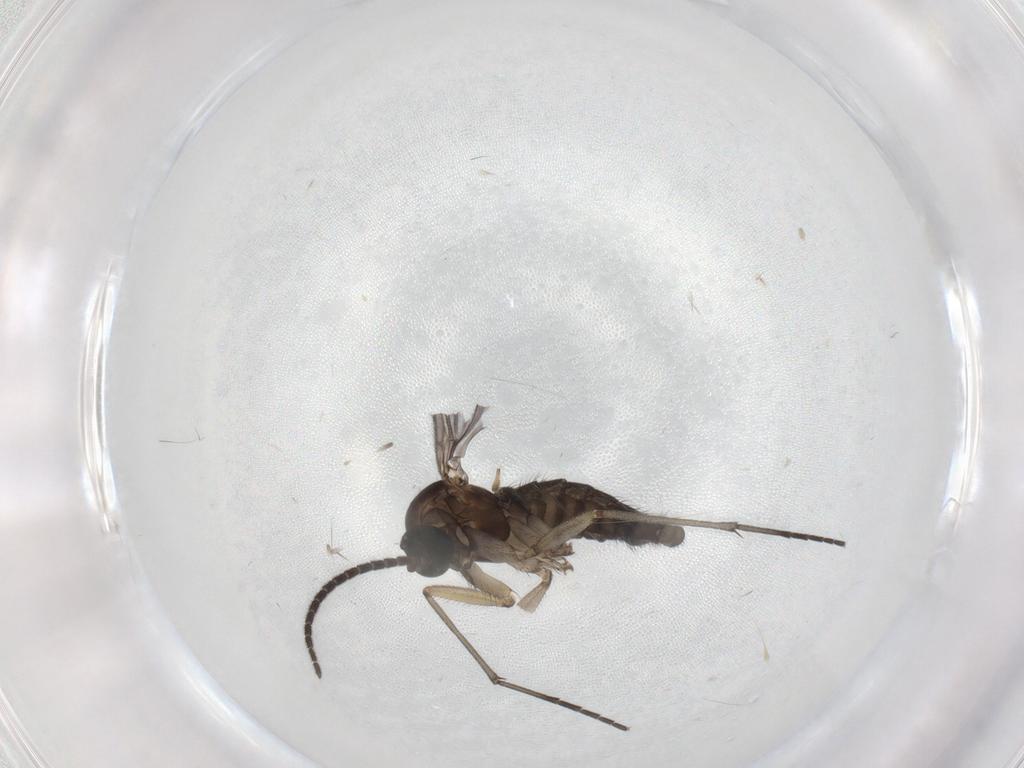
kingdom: Animalia
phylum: Arthropoda
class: Insecta
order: Diptera
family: Sciaridae
